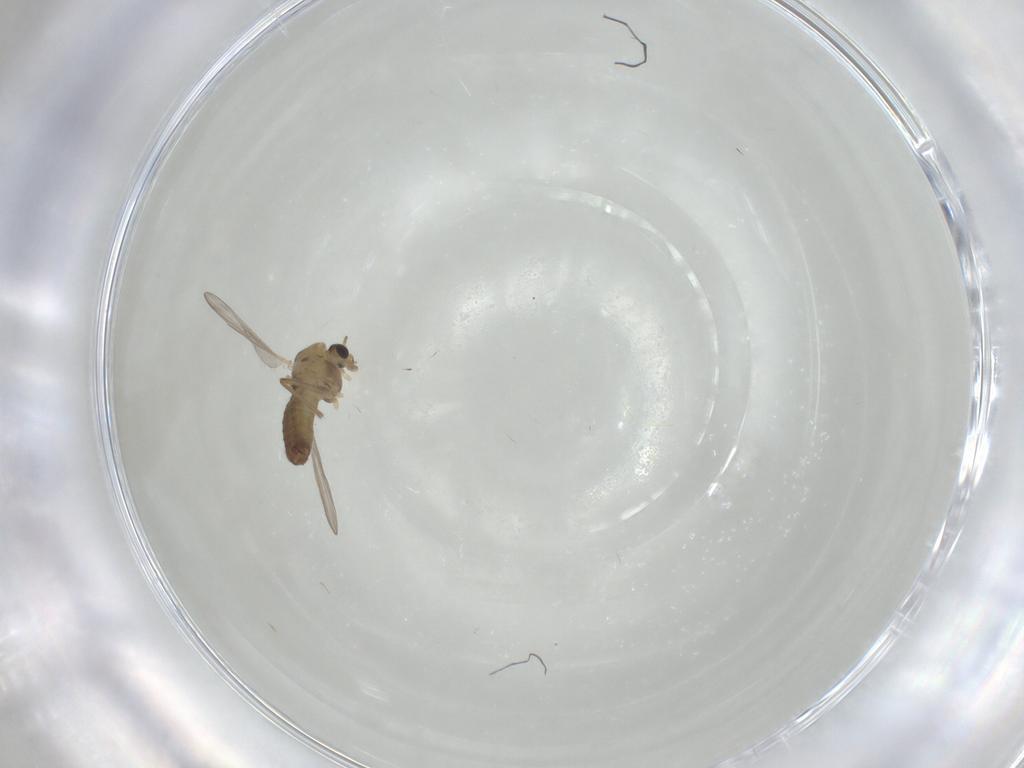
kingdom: Animalia
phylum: Arthropoda
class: Insecta
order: Diptera
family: Chironomidae
